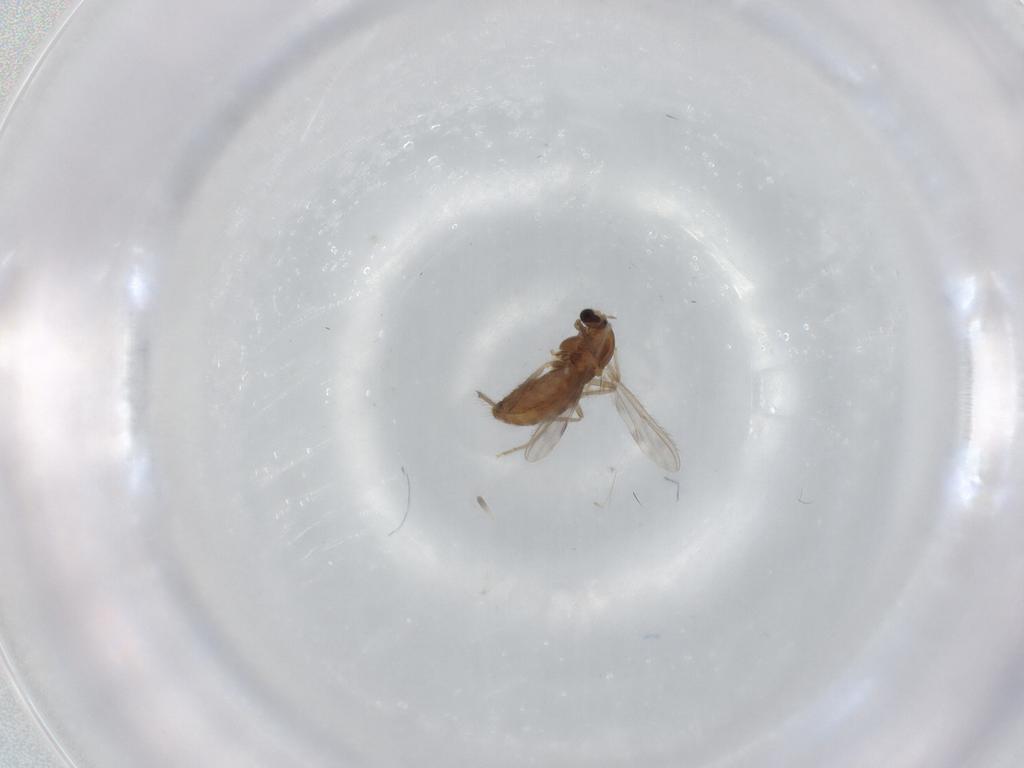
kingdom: Animalia
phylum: Arthropoda
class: Insecta
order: Diptera
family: Chironomidae
